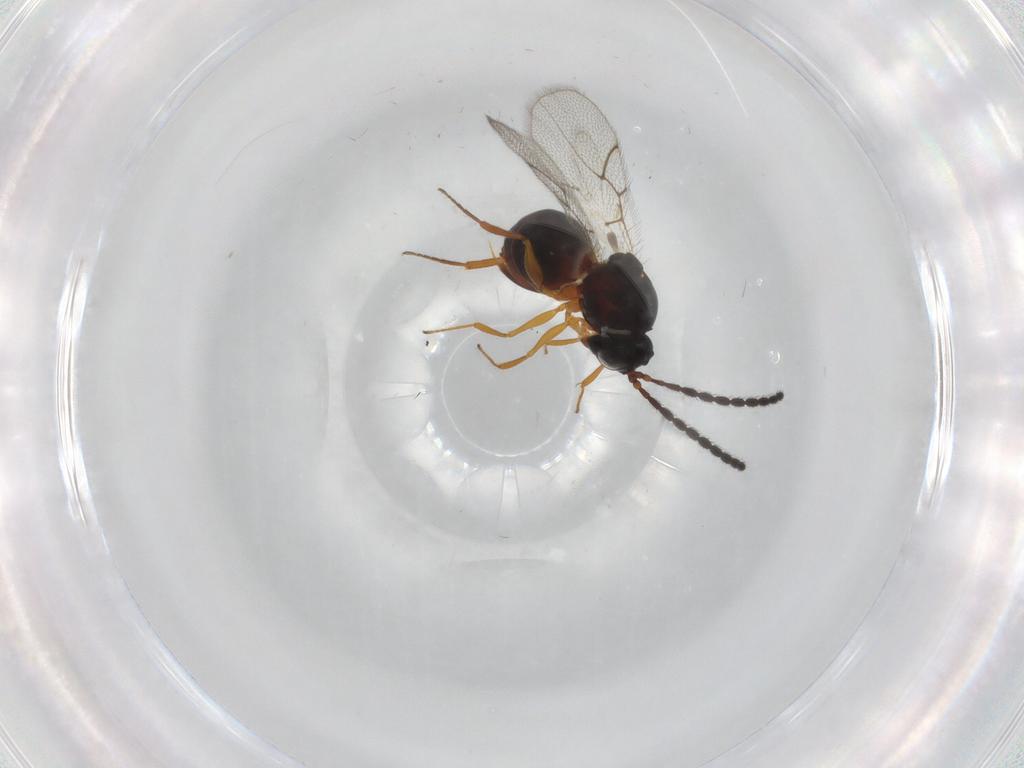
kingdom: Animalia
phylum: Arthropoda
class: Insecta
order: Hymenoptera
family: Figitidae
